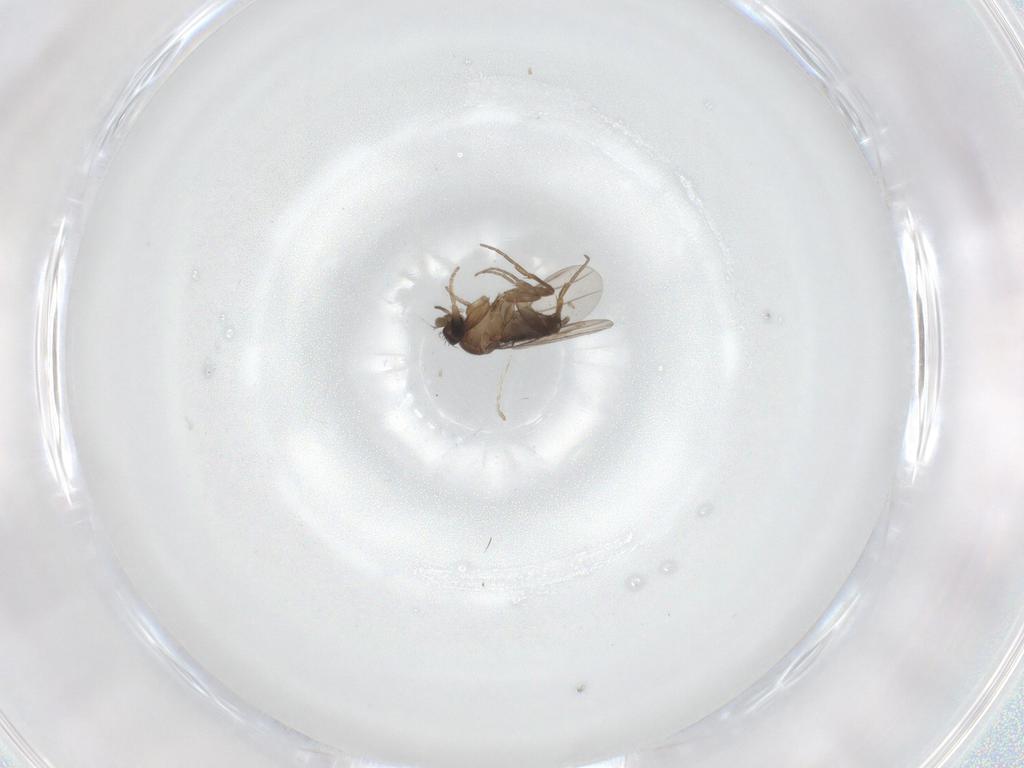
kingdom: Animalia
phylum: Arthropoda
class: Insecta
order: Diptera
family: Cecidomyiidae
